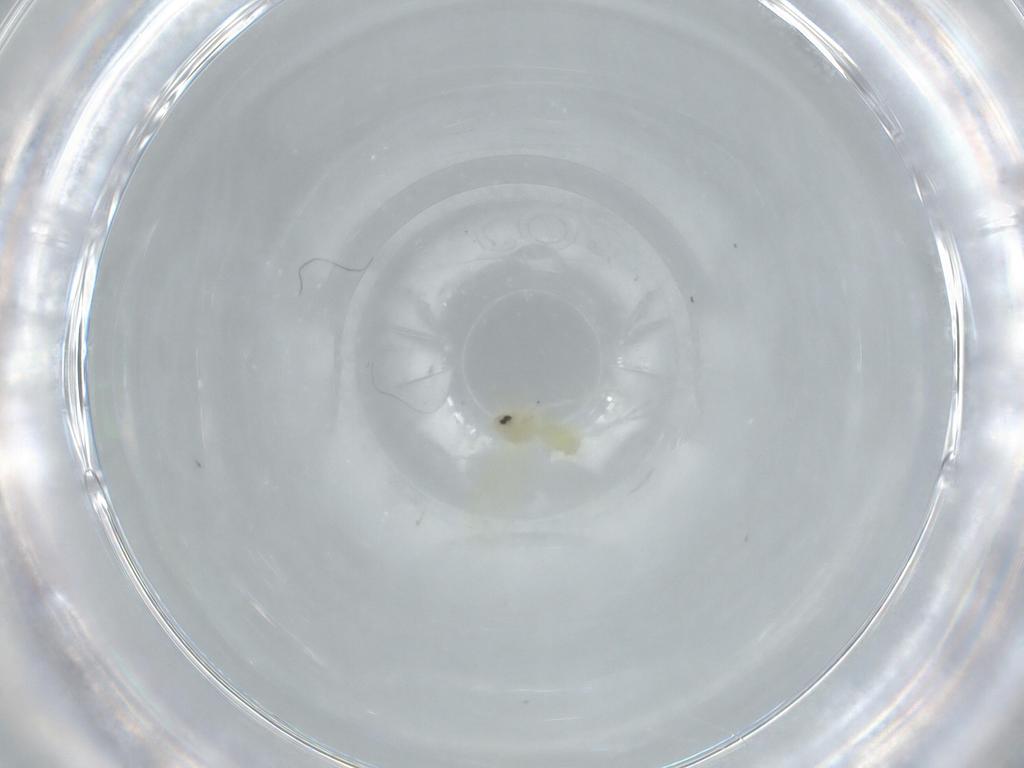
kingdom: Animalia
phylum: Arthropoda
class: Insecta
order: Hemiptera
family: Aleyrodidae
